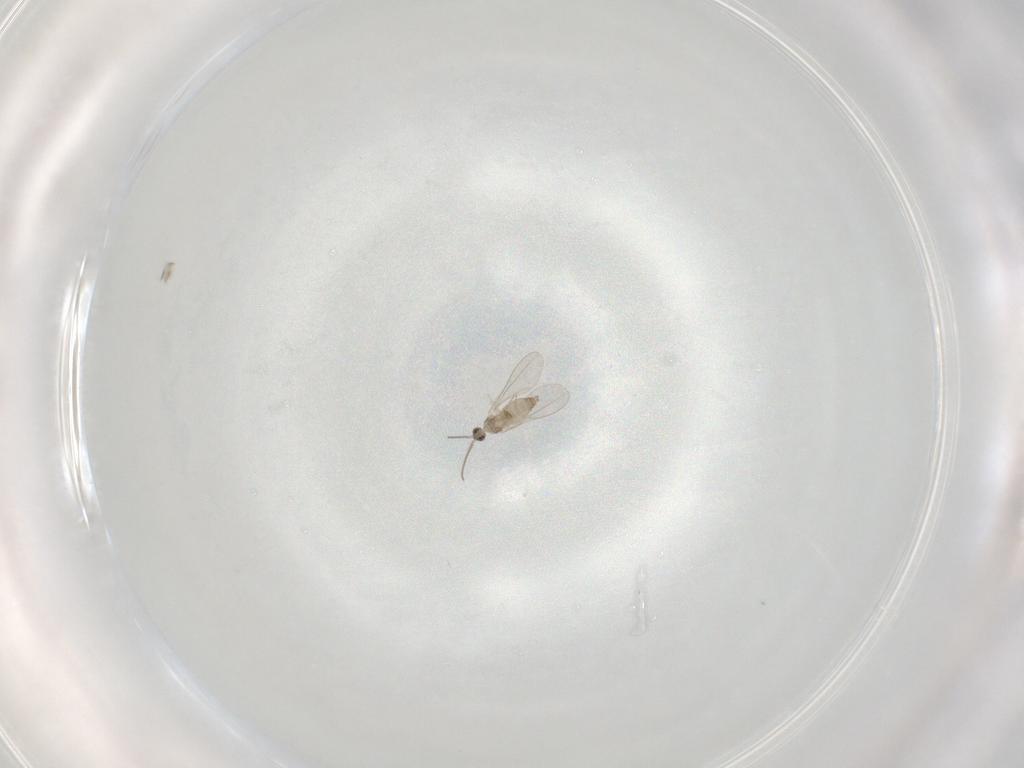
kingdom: Animalia
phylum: Arthropoda
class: Insecta
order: Diptera
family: Cecidomyiidae
